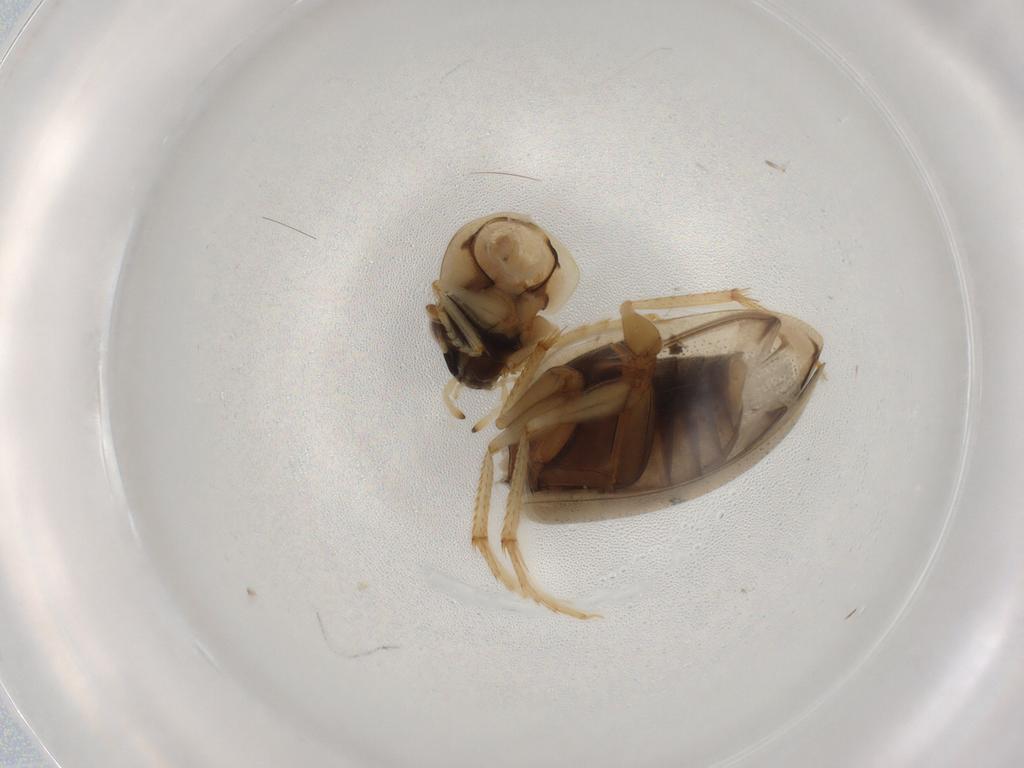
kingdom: Animalia
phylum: Arthropoda
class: Insecta
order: Coleoptera
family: Hydrophilidae
